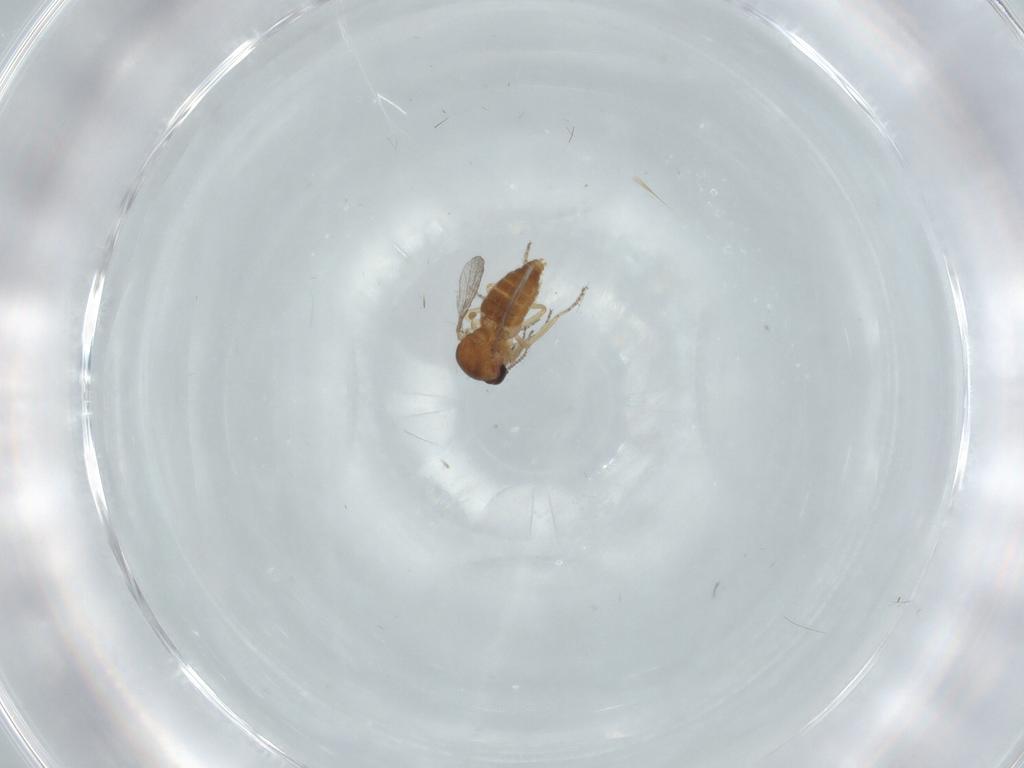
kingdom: Animalia
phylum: Arthropoda
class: Insecta
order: Diptera
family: Ceratopogonidae
